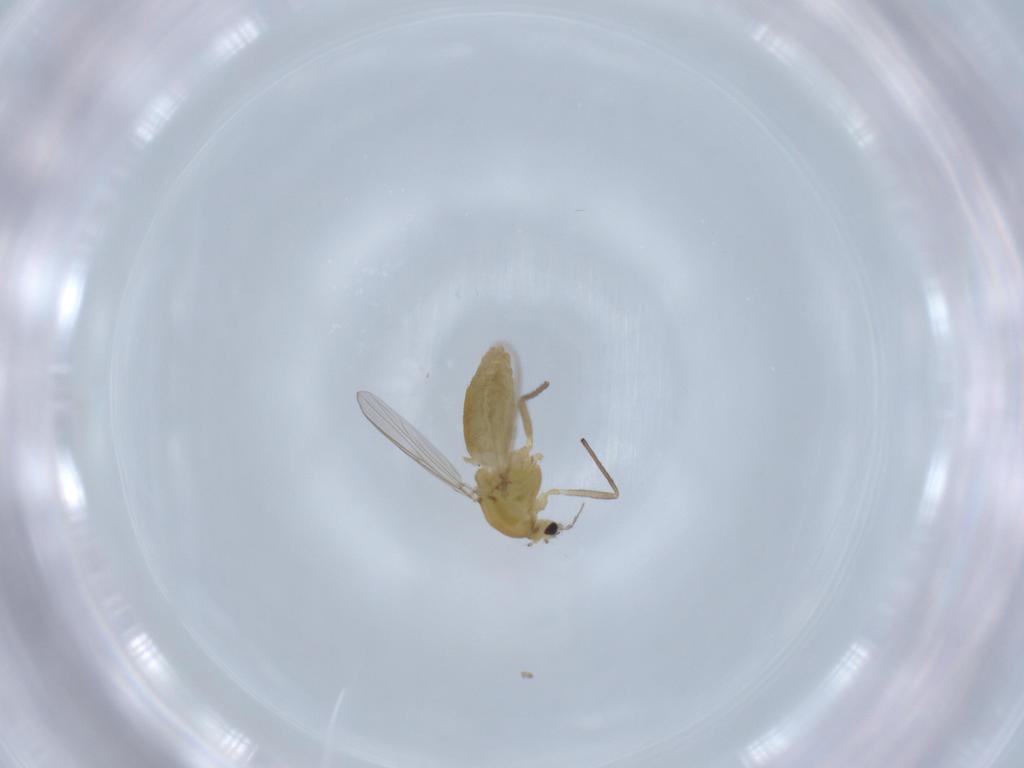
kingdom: Animalia
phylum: Arthropoda
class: Insecta
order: Diptera
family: Chironomidae
